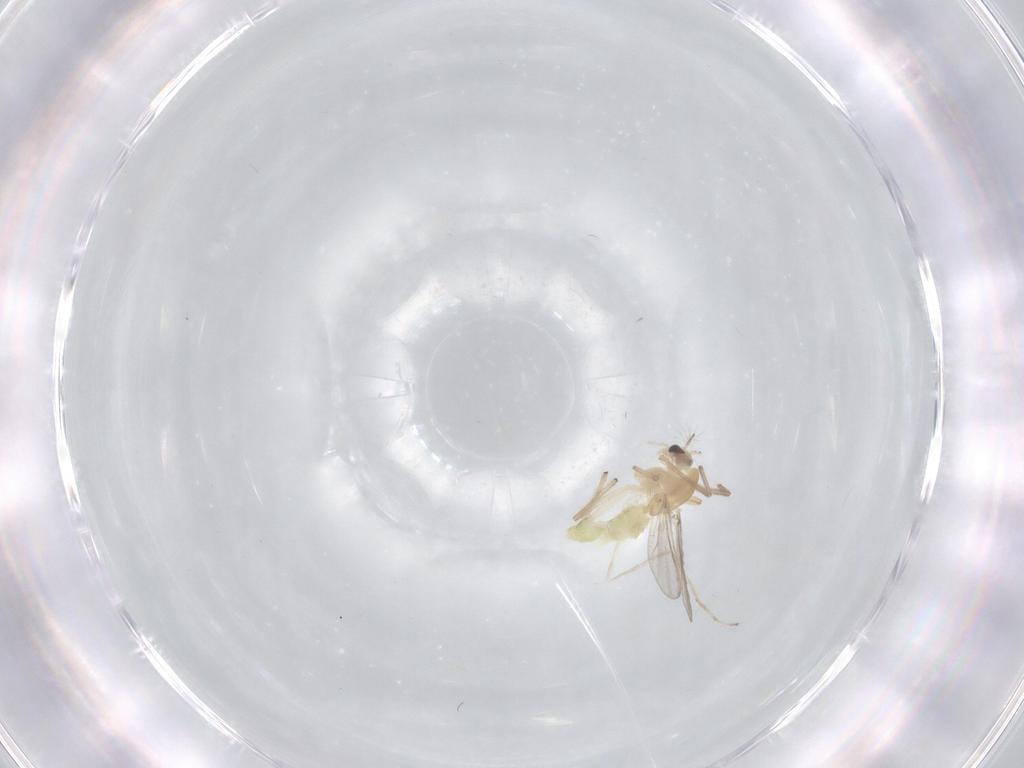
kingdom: Animalia
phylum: Arthropoda
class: Insecta
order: Diptera
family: Chironomidae
